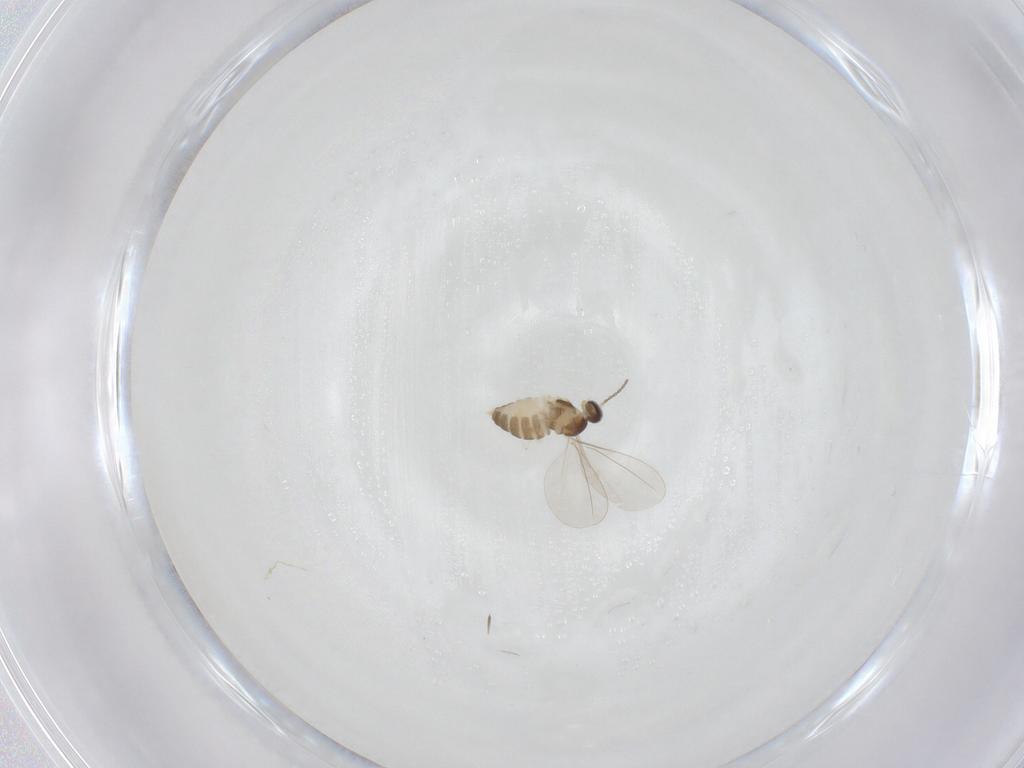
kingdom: Animalia
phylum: Arthropoda
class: Insecta
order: Diptera
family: Cecidomyiidae
